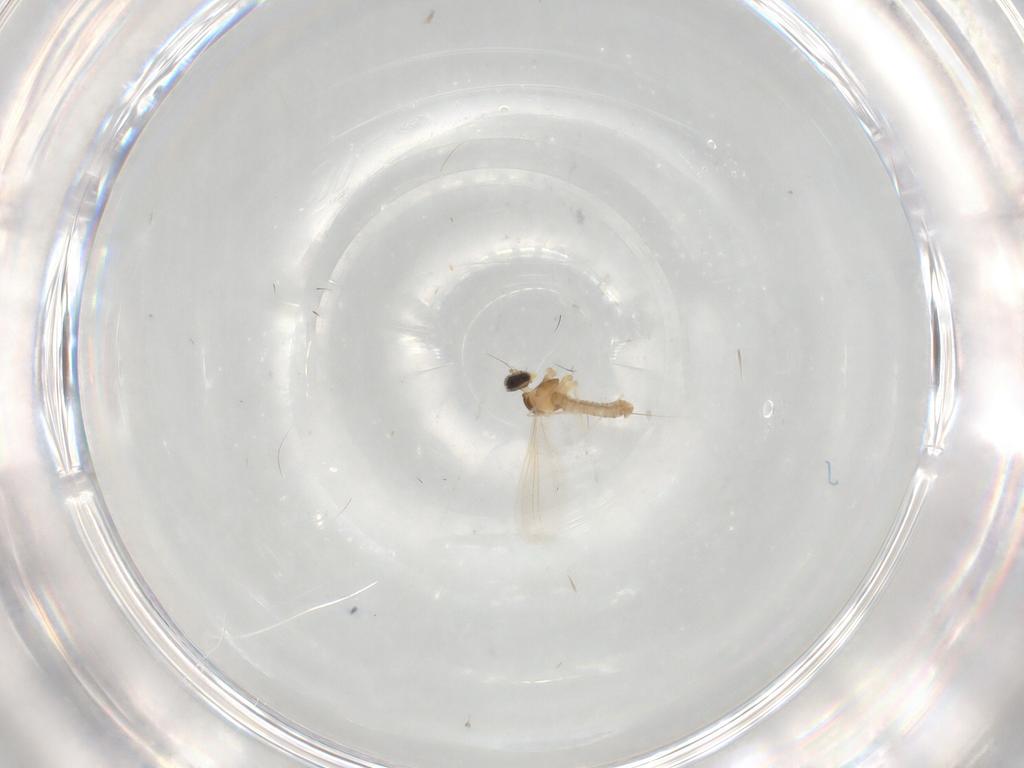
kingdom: Animalia
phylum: Arthropoda
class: Insecta
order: Diptera
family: Cecidomyiidae
